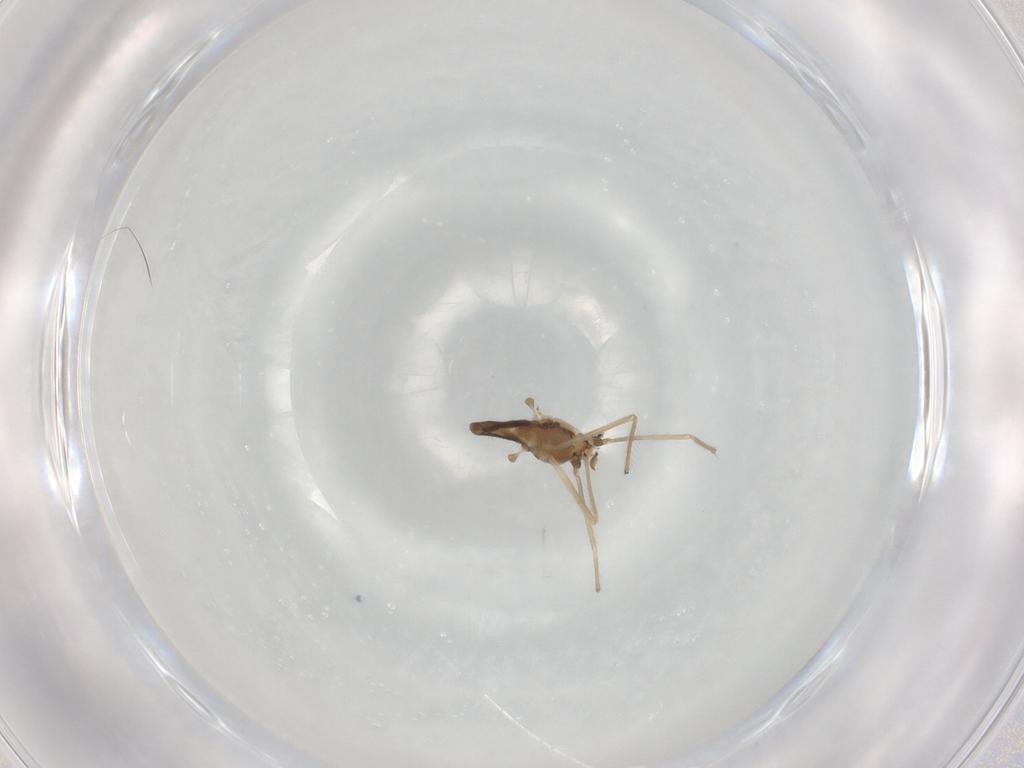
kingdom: Animalia
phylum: Arthropoda
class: Insecta
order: Diptera
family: Chironomidae
